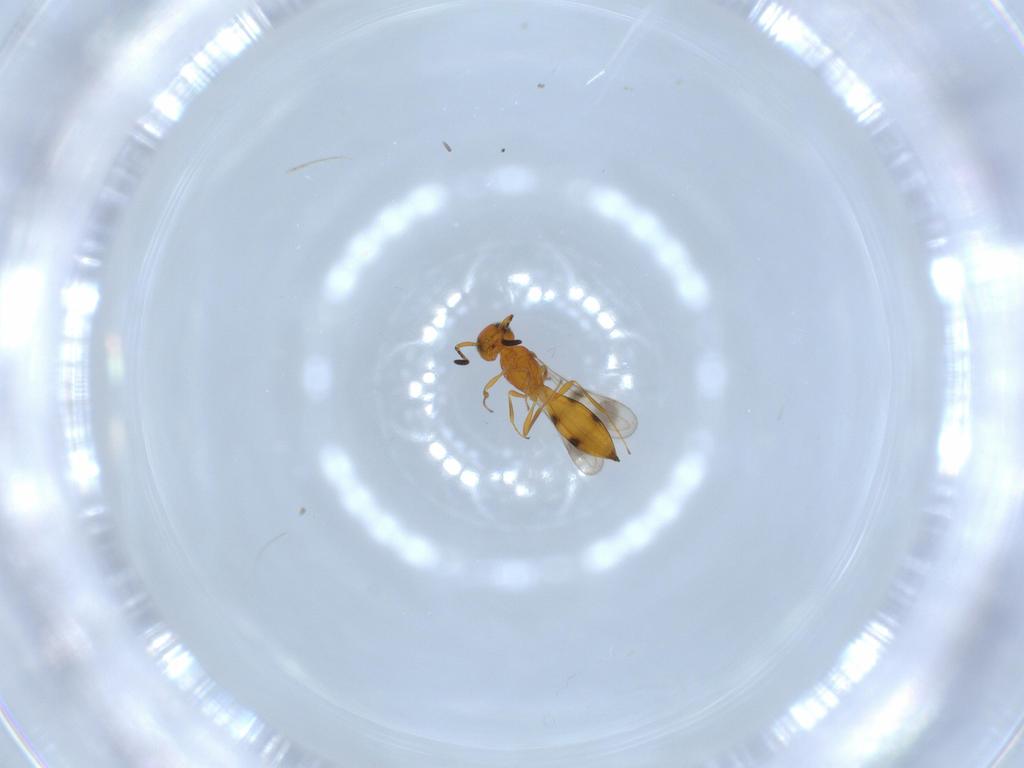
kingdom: Animalia
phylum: Arthropoda
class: Insecta
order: Hymenoptera
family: Scelionidae
